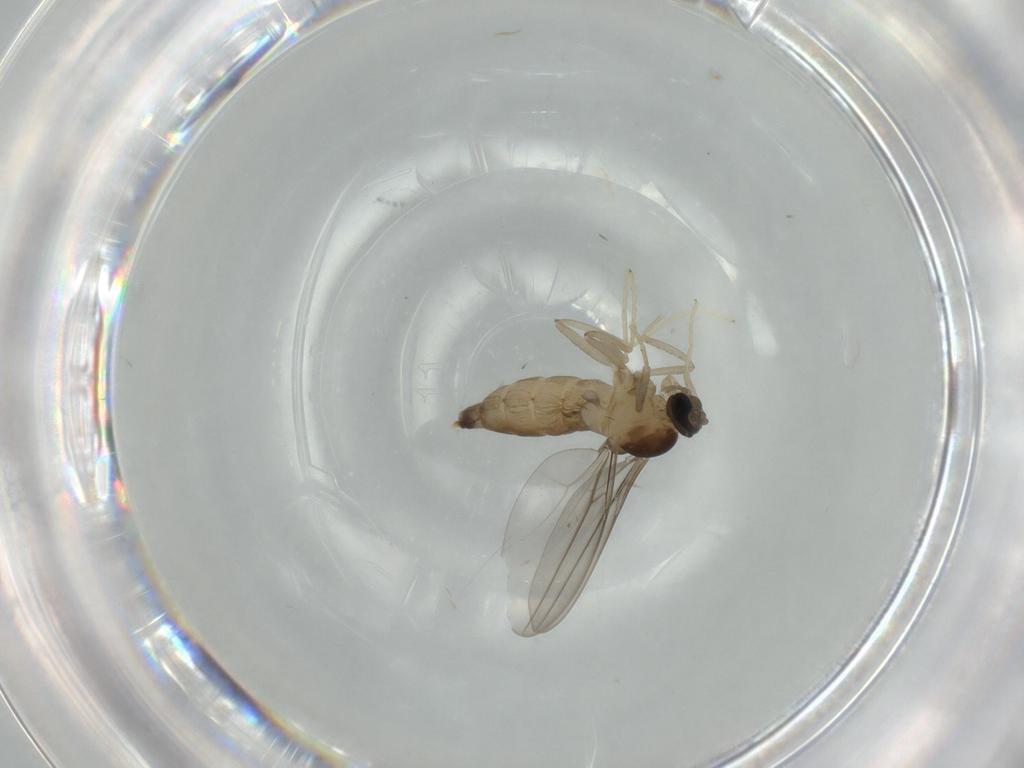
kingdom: Animalia
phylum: Arthropoda
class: Insecta
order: Diptera
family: Cecidomyiidae
